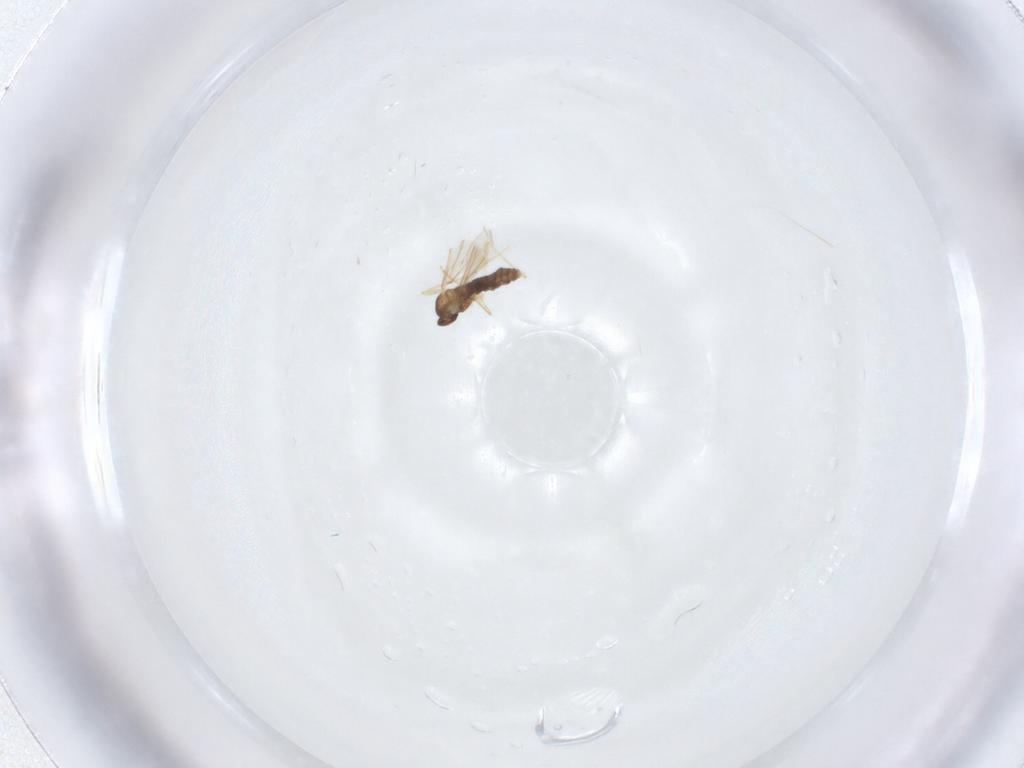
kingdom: Animalia
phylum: Arthropoda
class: Insecta
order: Diptera
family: Cecidomyiidae
